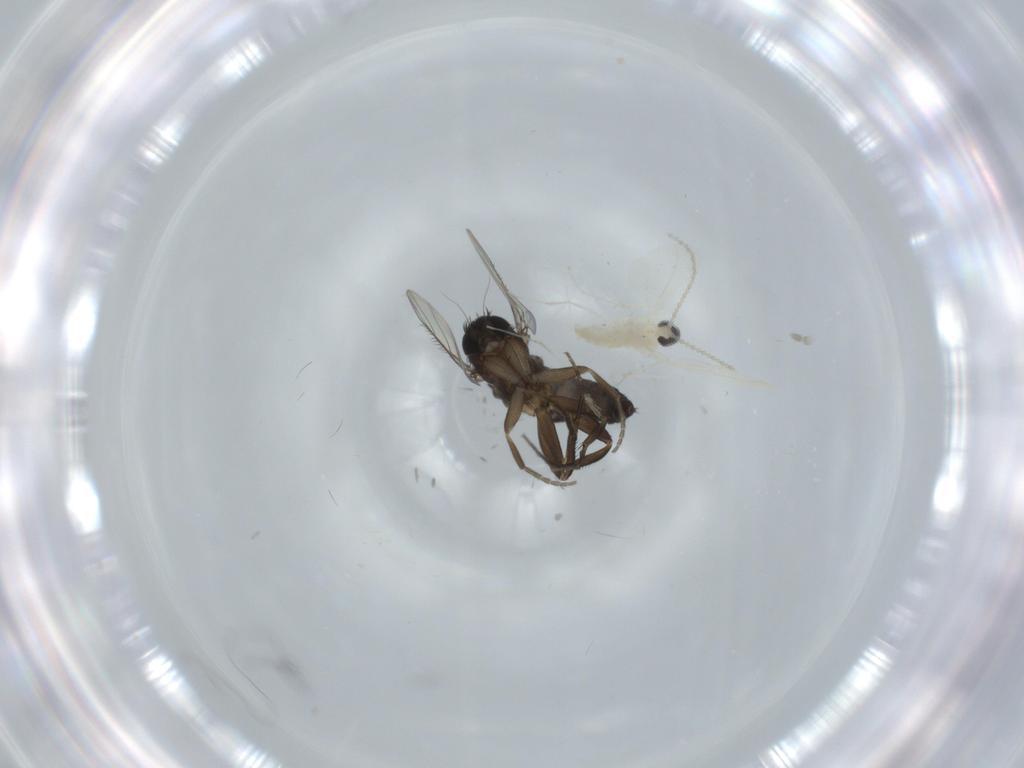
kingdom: Animalia
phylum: Arthropoda
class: Insecta
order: Diptera
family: Phoridae
